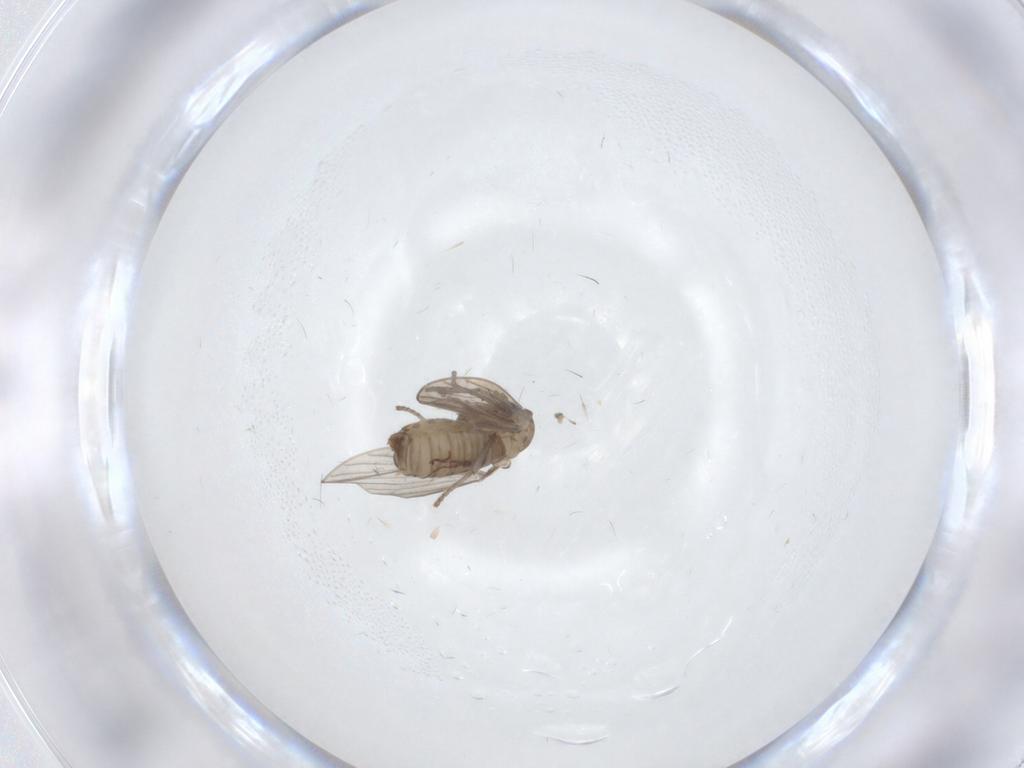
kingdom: Animalia
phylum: Arthropoda
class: Insecta
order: Diptera
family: Psychodidae
